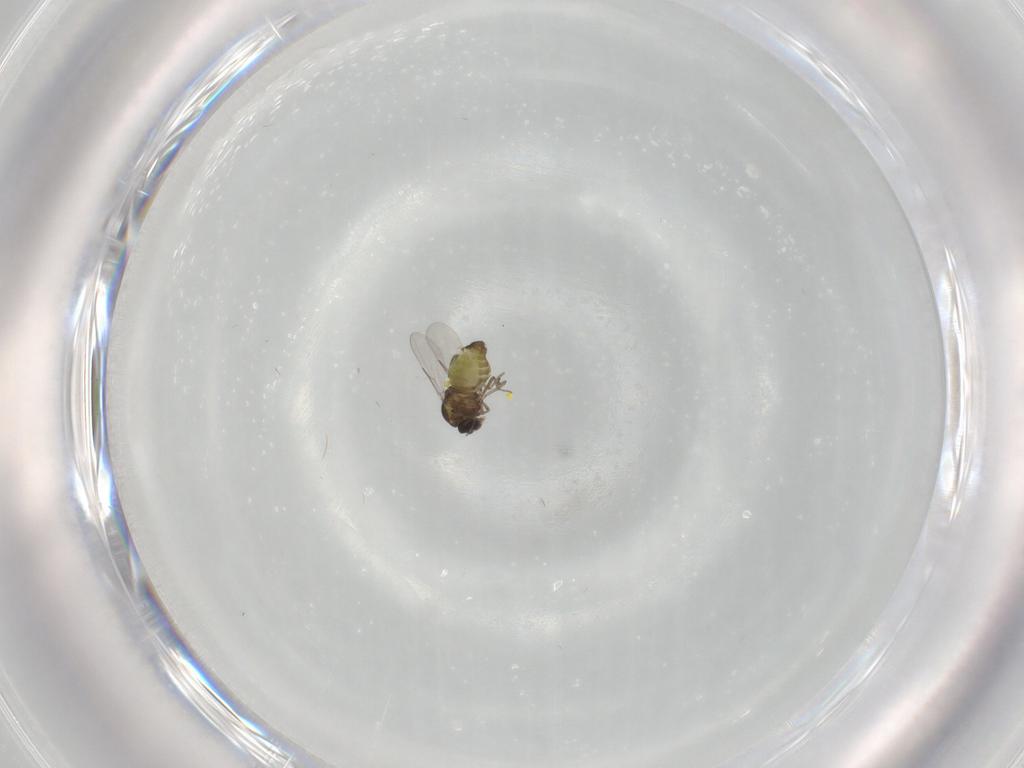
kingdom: Animalia
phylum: Arthropoda
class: Insecta
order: Diptera
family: Ceratopogonidae
